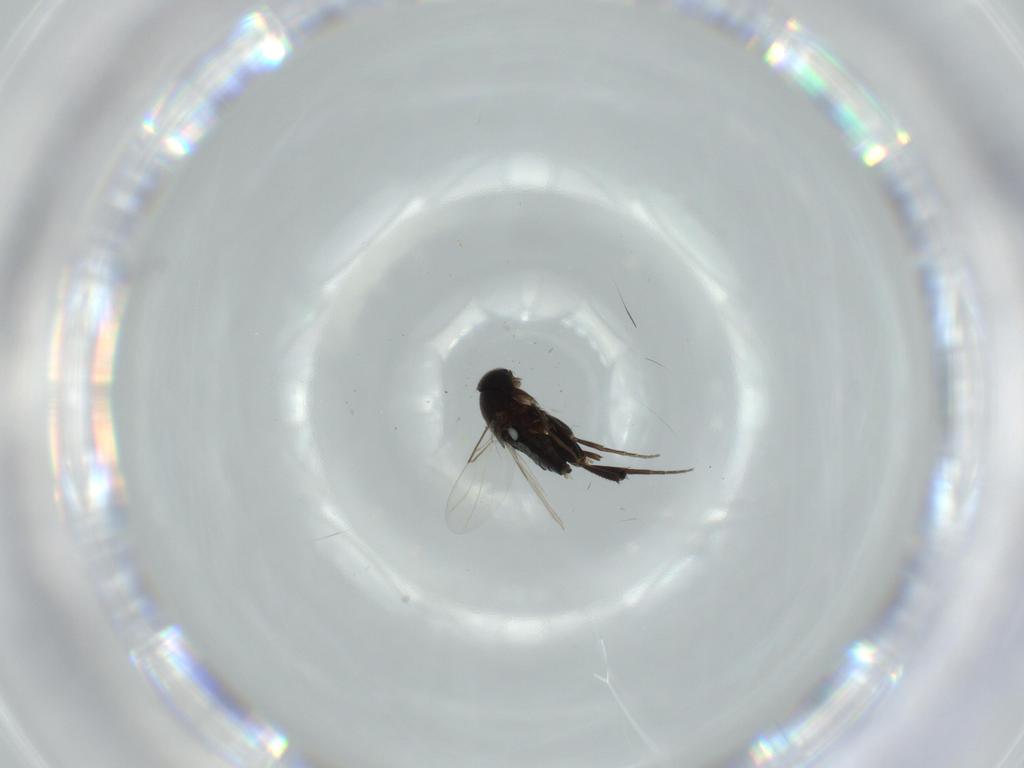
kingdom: Animalia
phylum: Arthropoda
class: Insecta
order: Diptera
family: Phoridae
